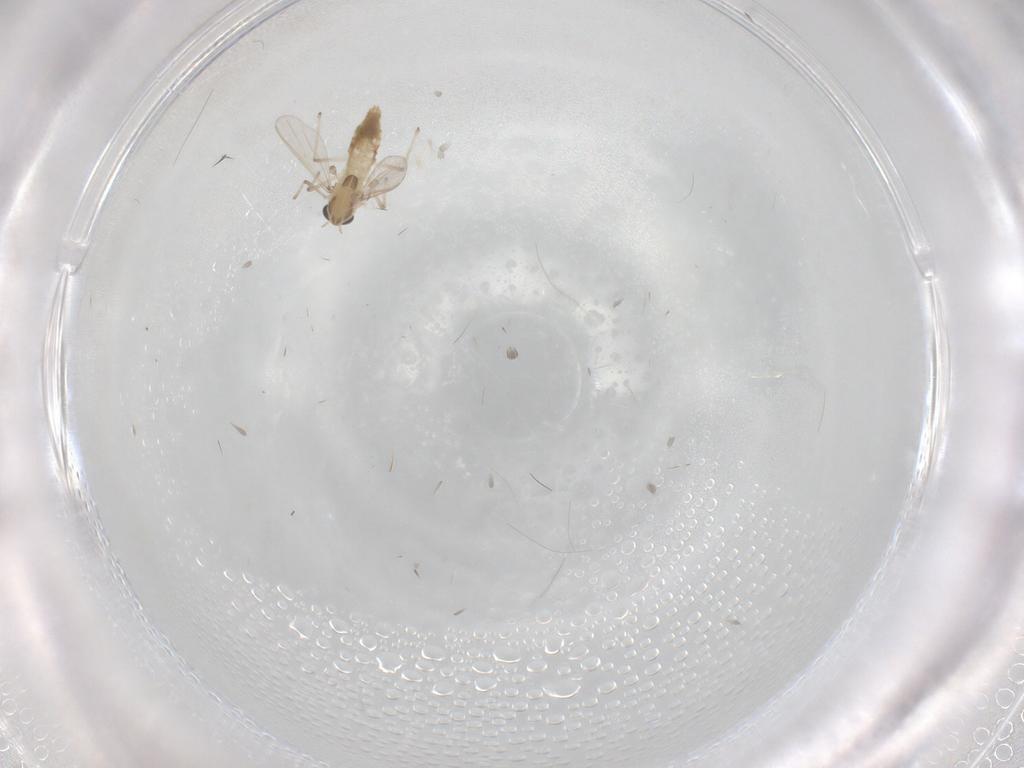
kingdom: Animalia
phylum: Arthropoda
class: Insecta
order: Diptera
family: Chironomidae
